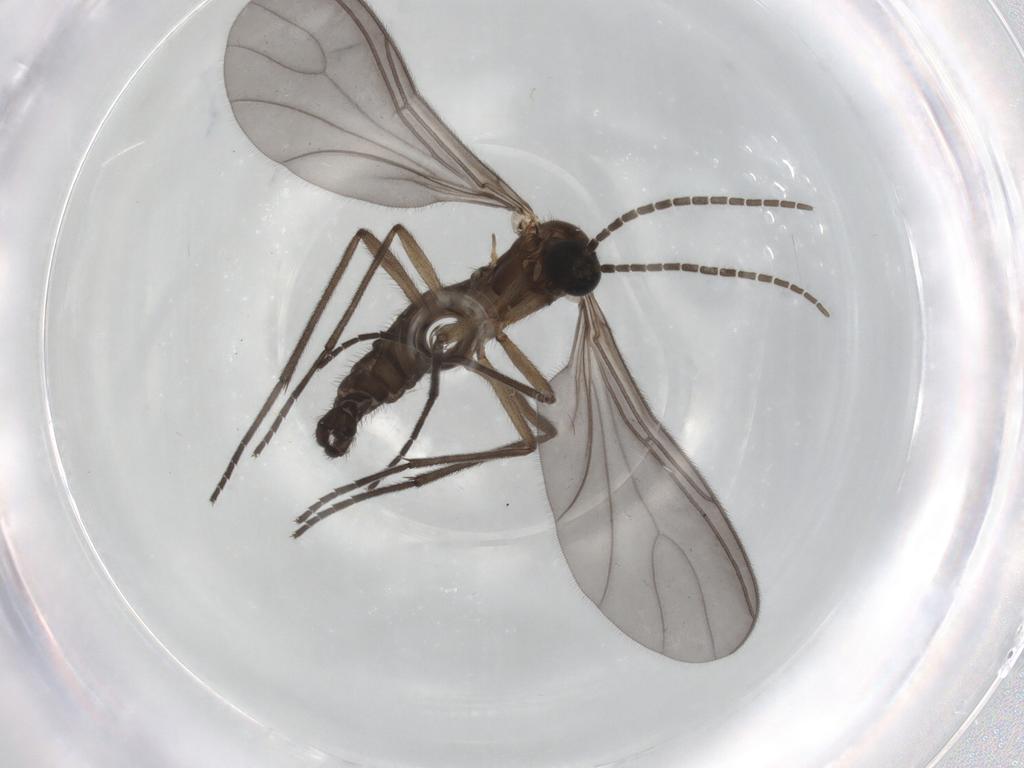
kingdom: Animalia
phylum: Arthropoda
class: Insecta
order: Diptera
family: Sciaridae
